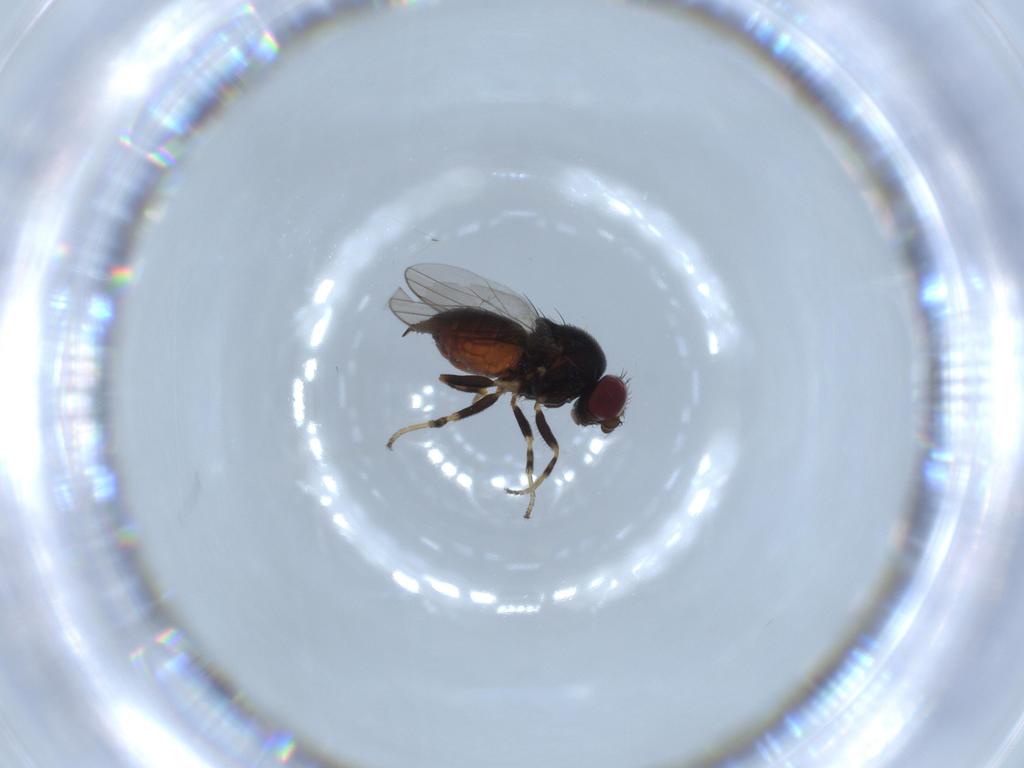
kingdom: Animalia
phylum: Arthropoda
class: Insecta
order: Diptera
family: Chloropidae
